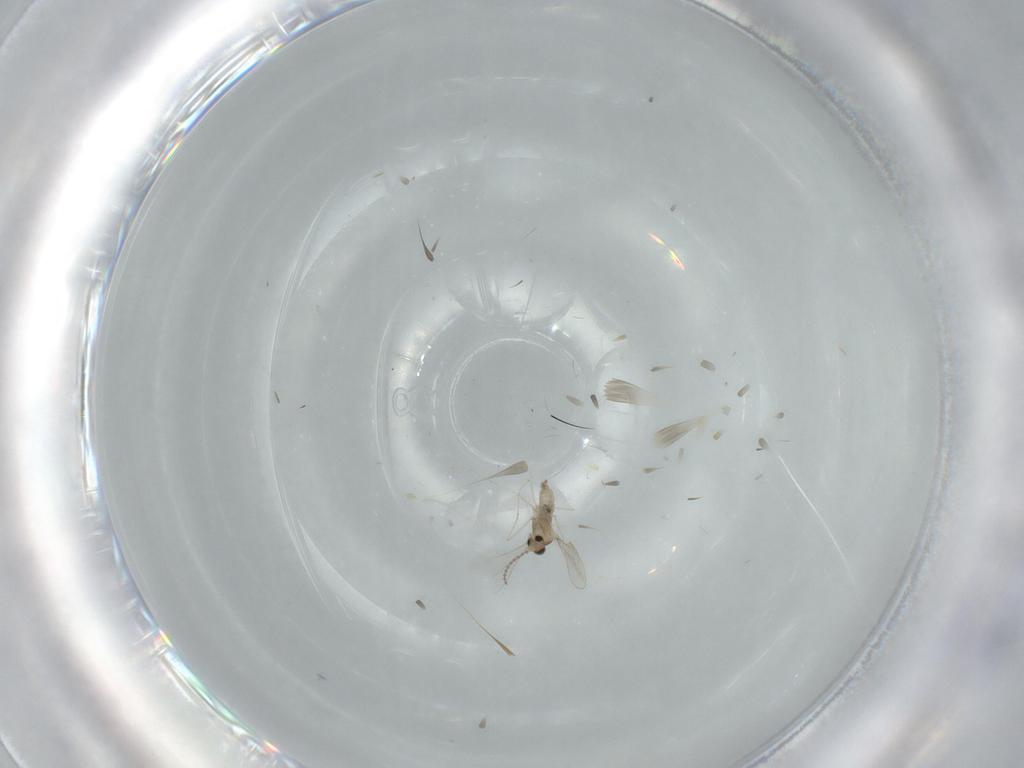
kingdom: Animalia
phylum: Arthropoda
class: Insecta
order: Diptera
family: Cecidomyiidae
